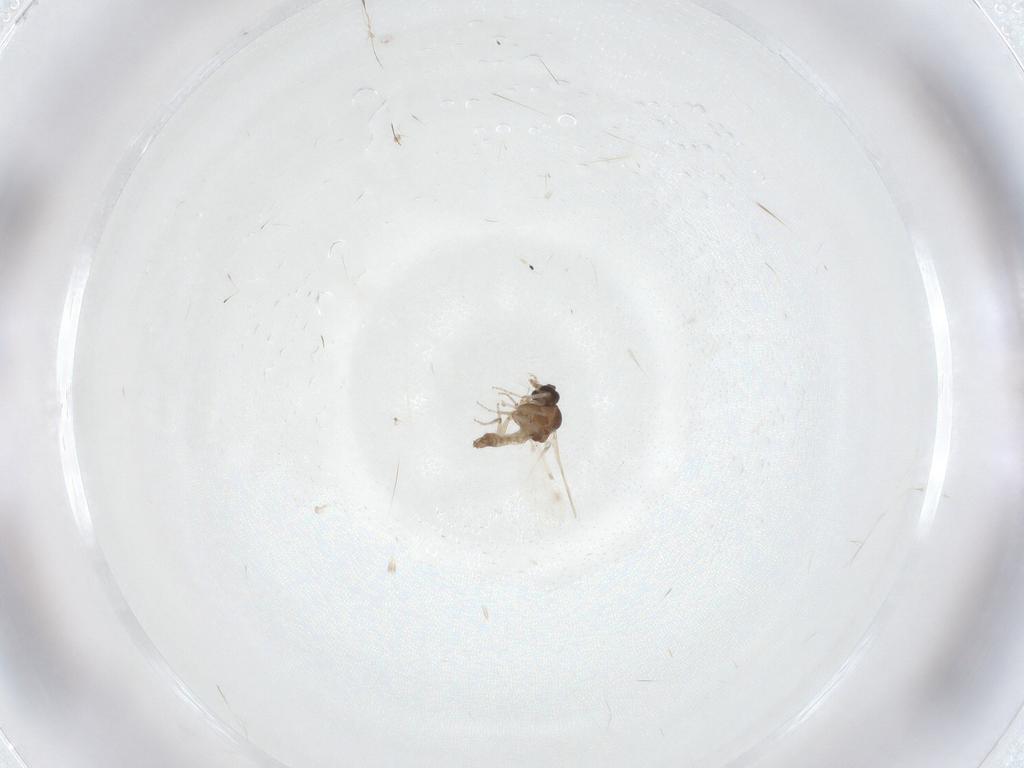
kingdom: Animalia
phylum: Arthropoda
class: Insecta
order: Diptera
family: Ceratopogonidae
